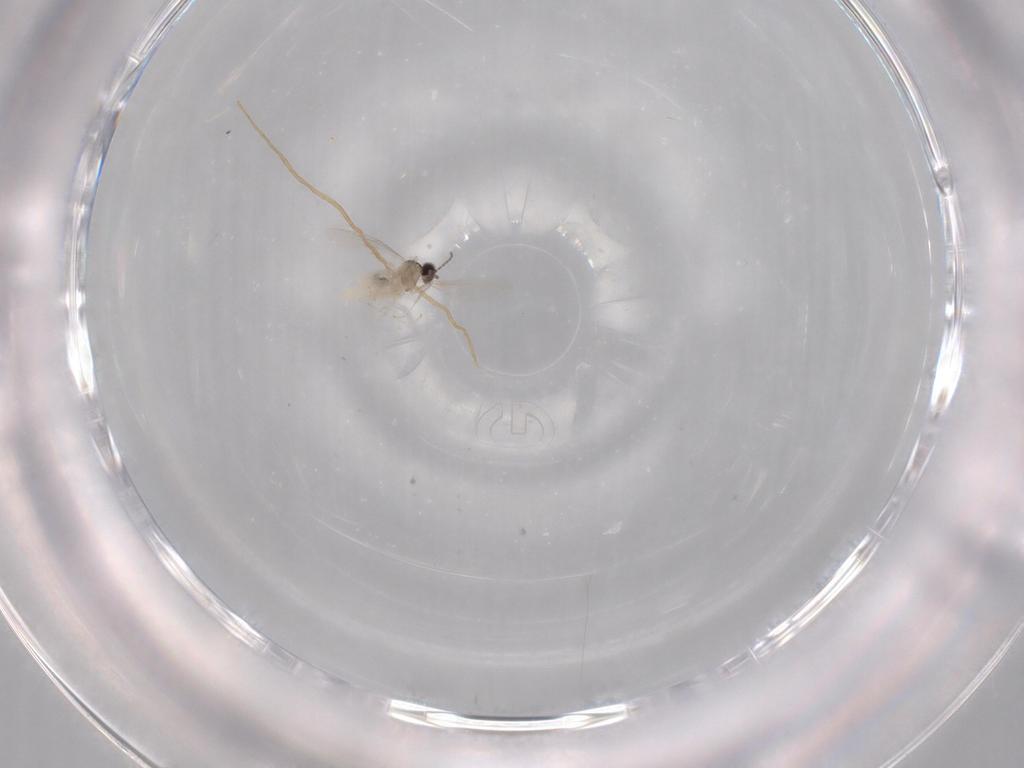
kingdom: Animalia
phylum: Arthropoda
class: Insecta
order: Diptera
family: Cecidomyiidae
